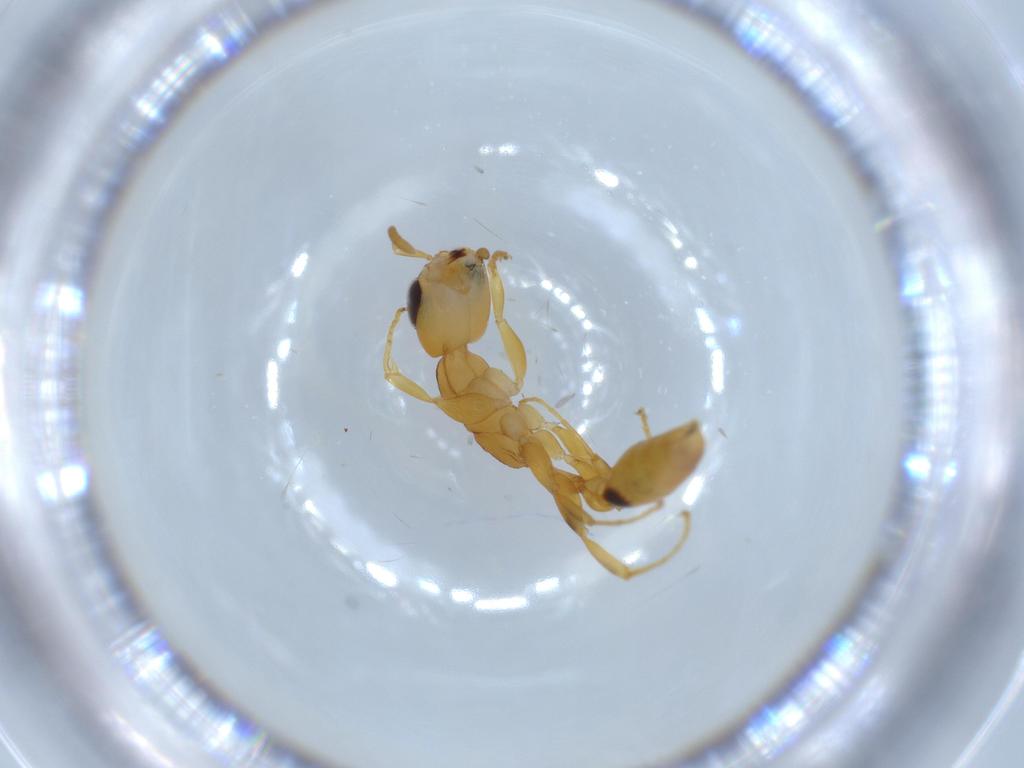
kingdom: Animalia
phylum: Arthropoda
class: Insecta
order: Hymenoptera
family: Formicidae
